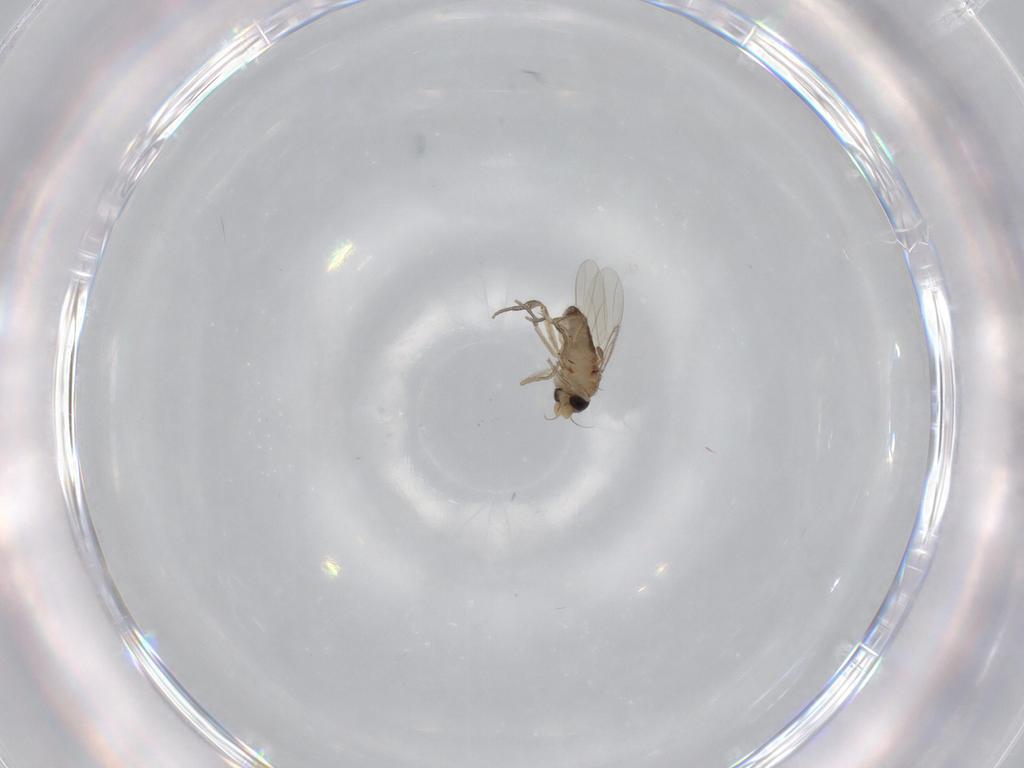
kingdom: Animalia
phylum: Arthropoda
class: Insecta
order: Diptera
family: Phoridae
